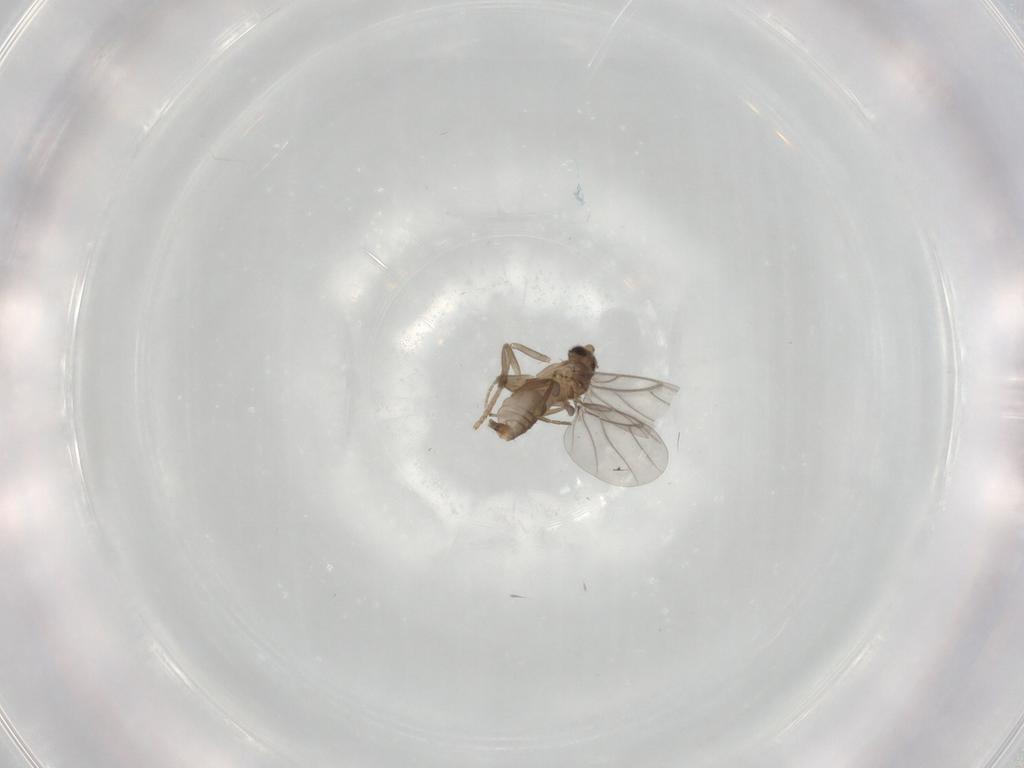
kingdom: Animalia
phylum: Arthropoda
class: Insecta
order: Diptera
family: Psychodidae
